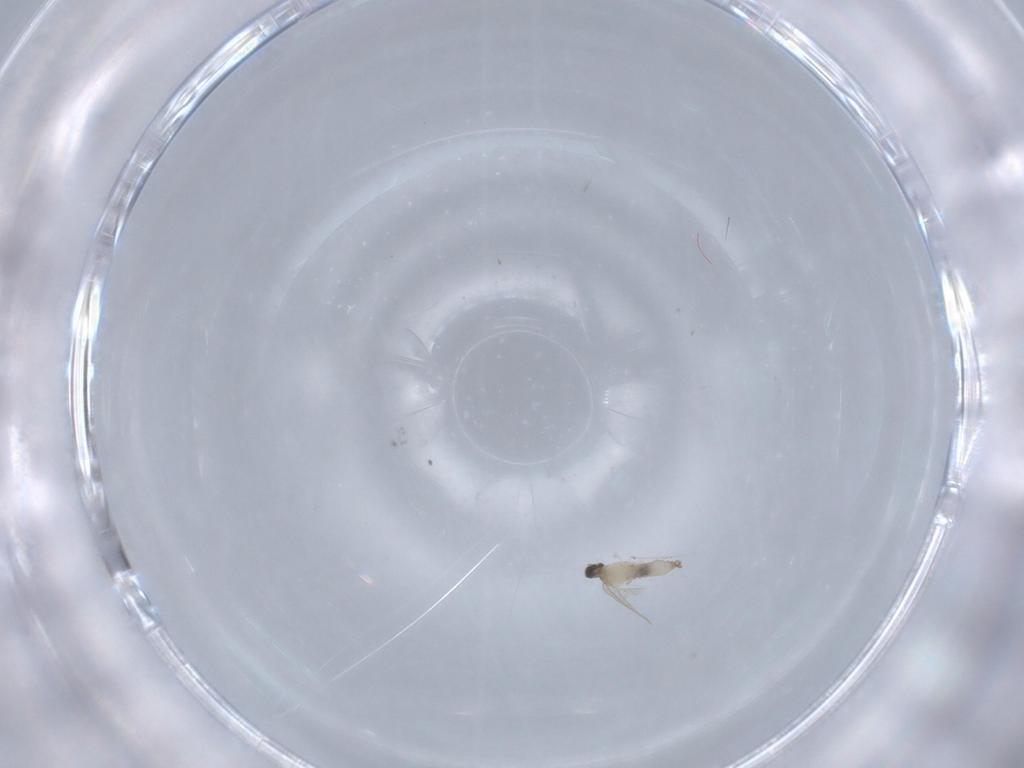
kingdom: Animalia
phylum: Arthropoda
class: Insecta
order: Diptera
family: Cecidomyiidae
